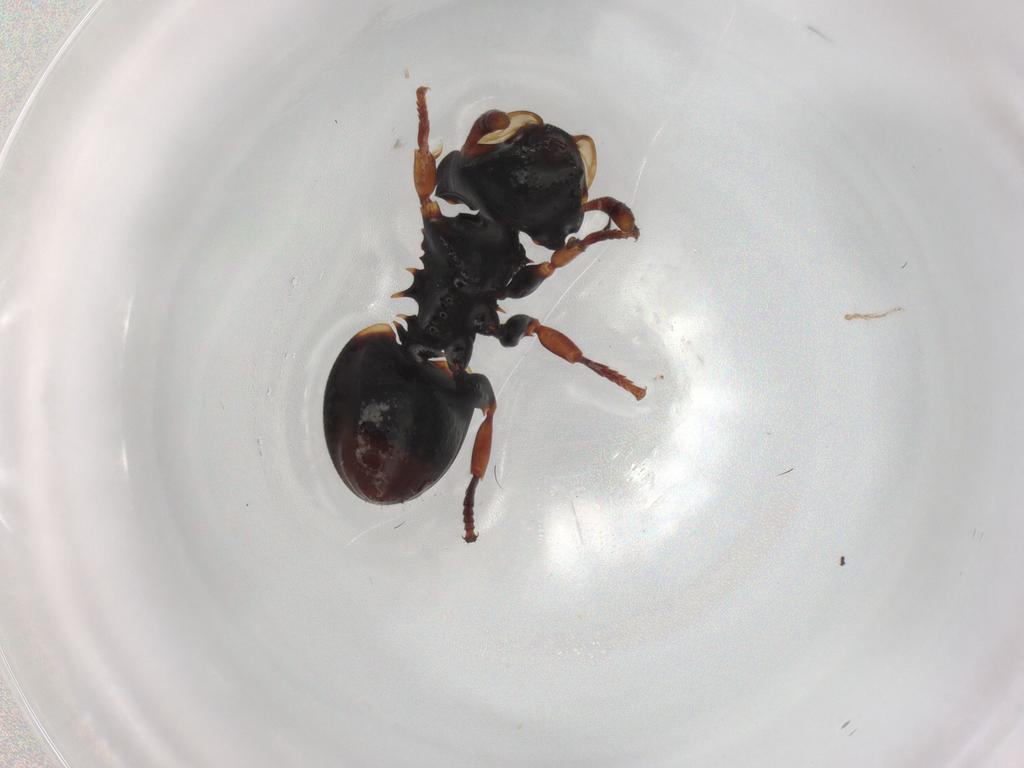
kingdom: Animalia
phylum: Arthropoda
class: Insecta
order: Hymenoptera
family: Formicidae
